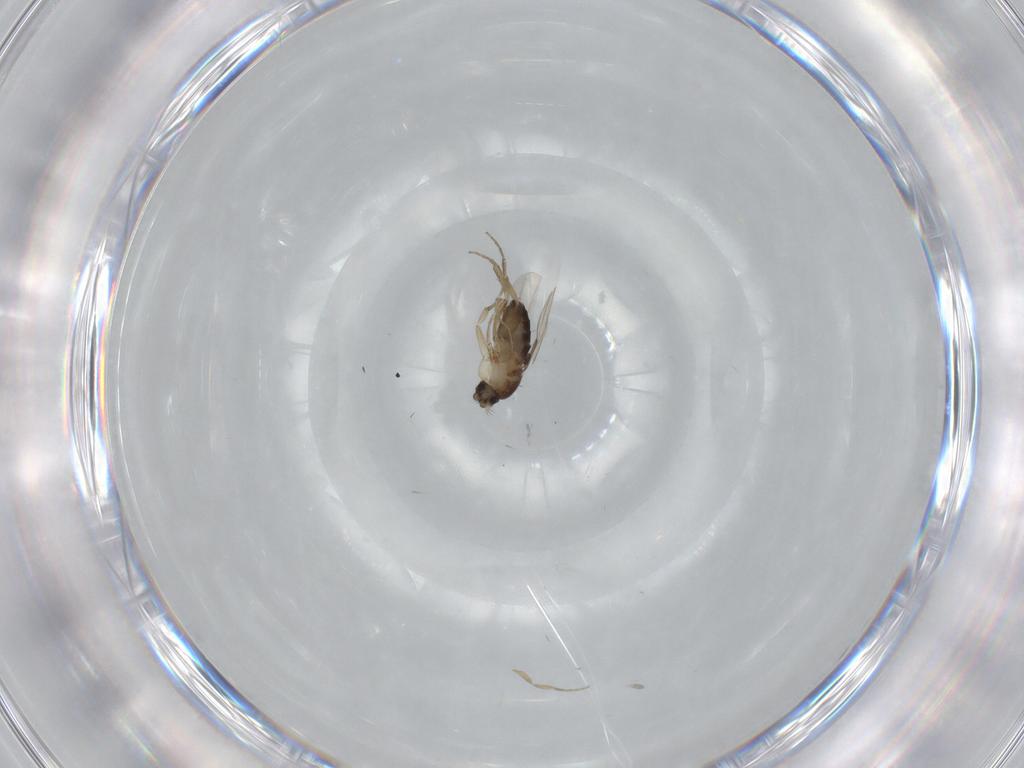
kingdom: Animalia
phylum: Arthropoda
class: Insecta
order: Diptera
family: Phoridae
